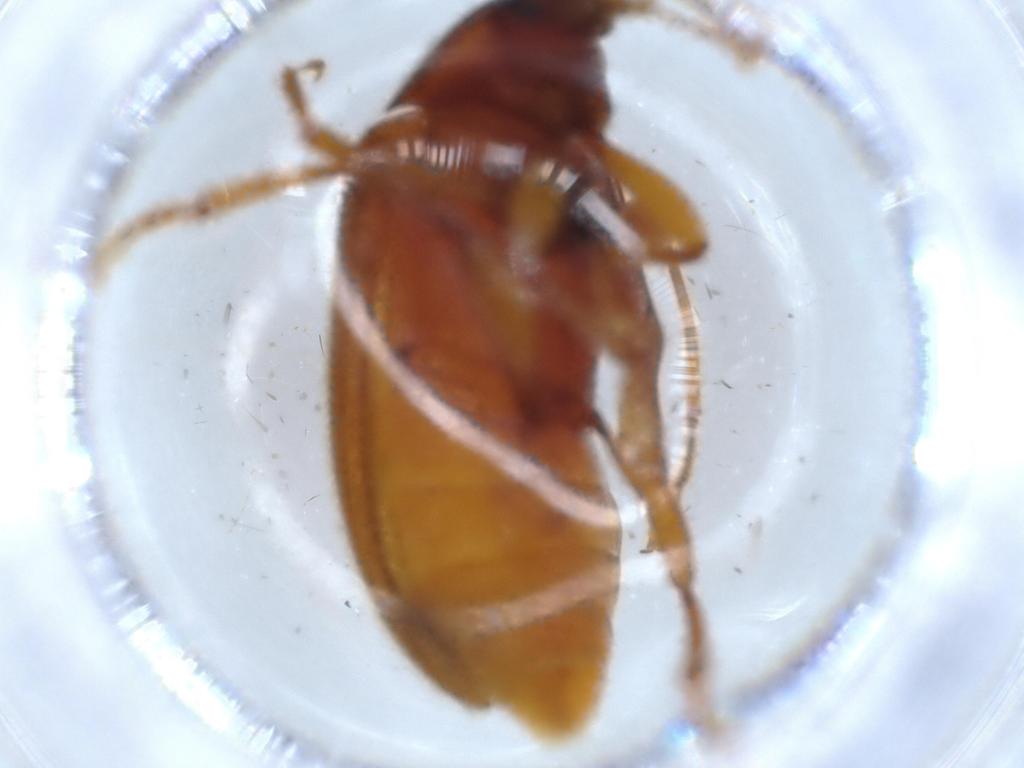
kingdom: Animalia
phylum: Arthropoda
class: Insecta
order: Coleoptera
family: Tenebrionidae
